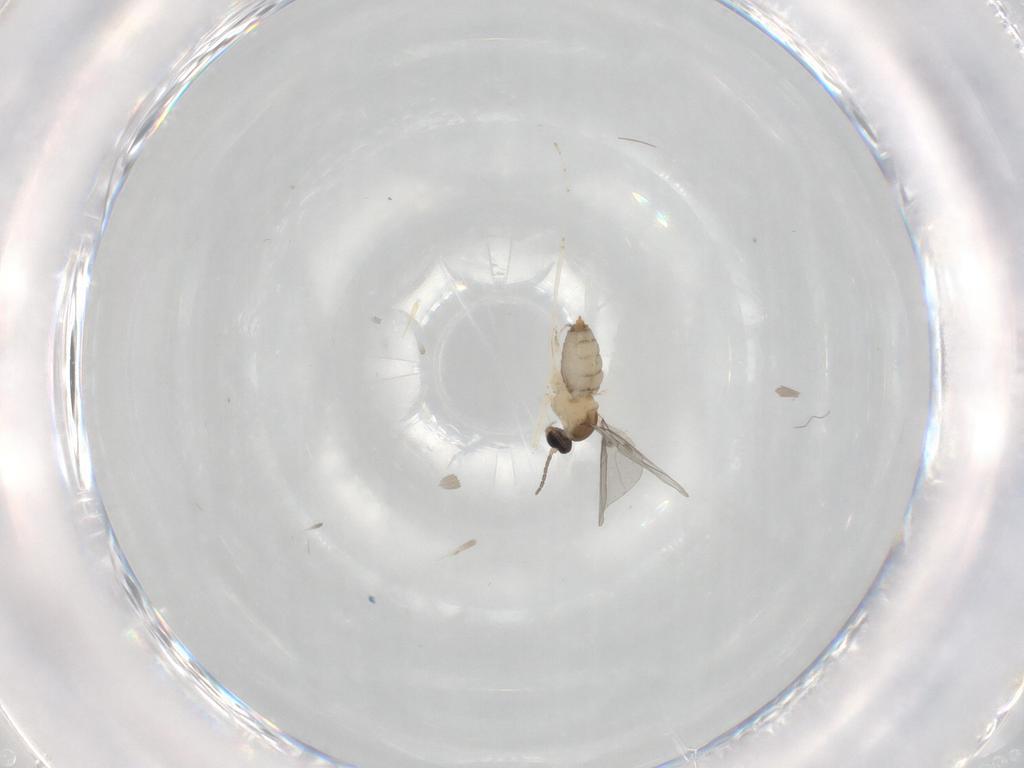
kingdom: Animalia
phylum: Arthropoda
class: Insecta
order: Diptera
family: Cecidomyiidae
